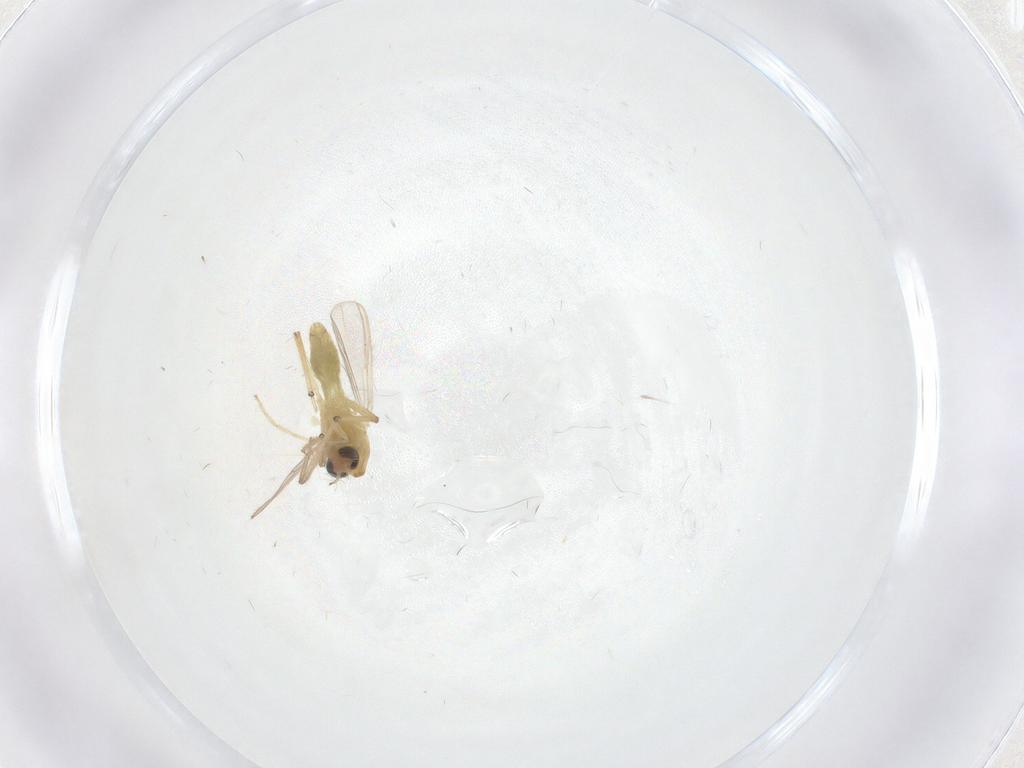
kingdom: Animalia
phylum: Arthropoda
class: Insecta
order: Diptera
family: Chironomidae
